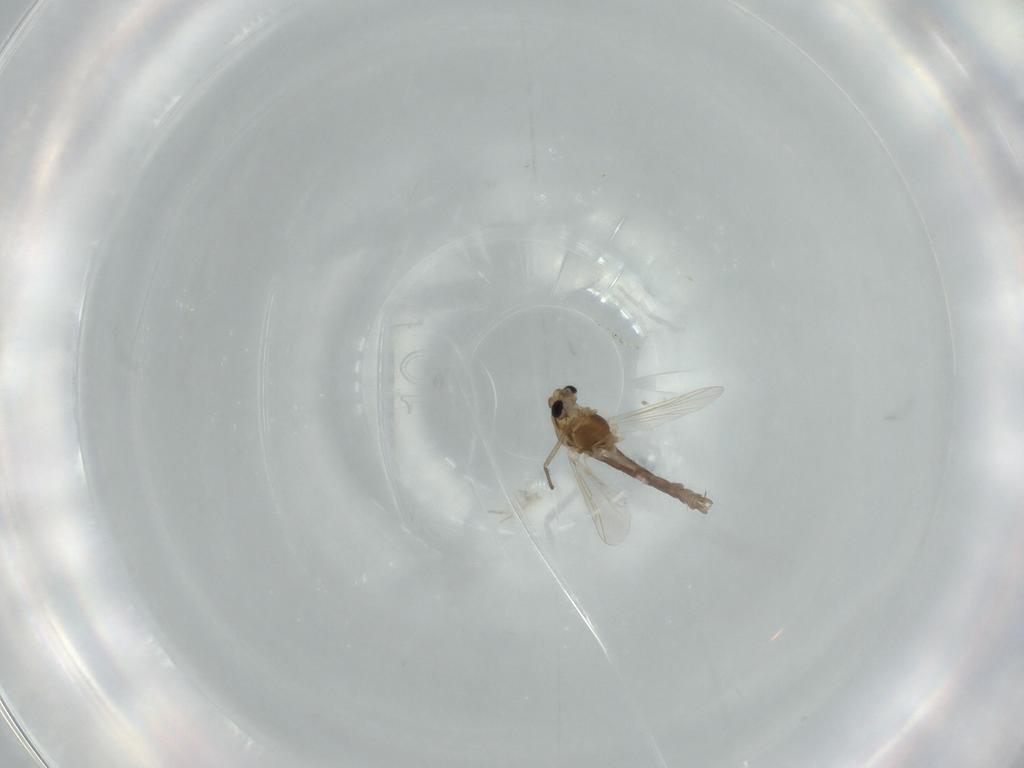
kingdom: Animalia
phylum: Arthropoda
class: Insecta
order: Diptera
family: Chironomidae
